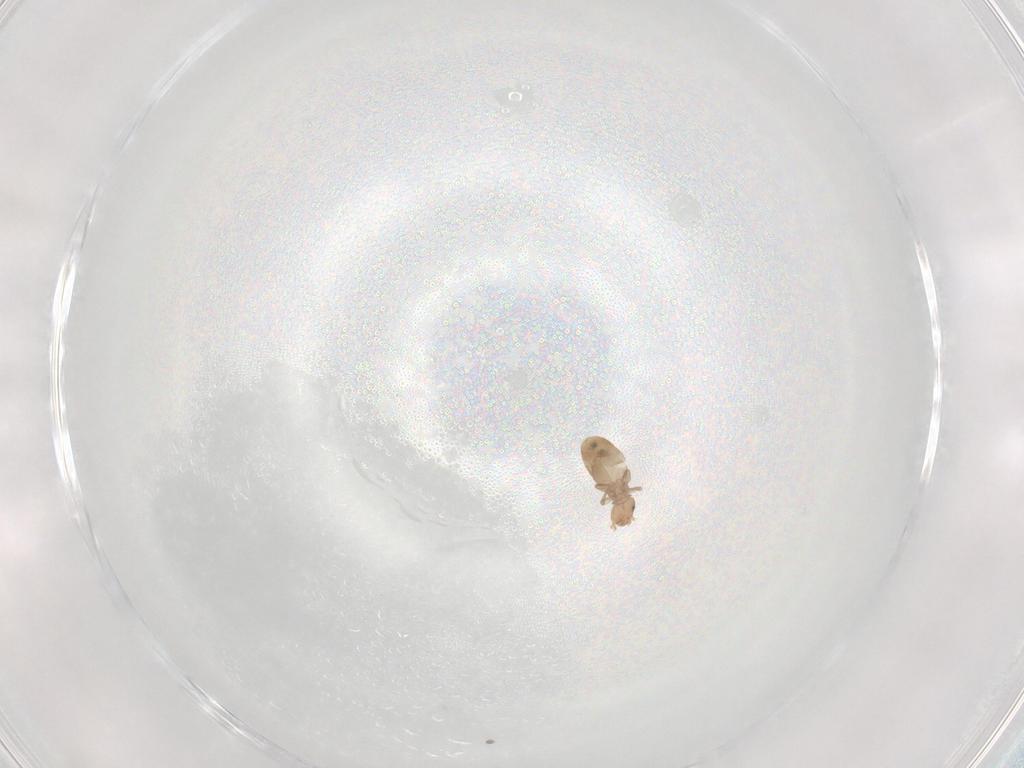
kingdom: Animalia
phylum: Arthropoda
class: Insecta
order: Psocodea
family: Liposcelididae
